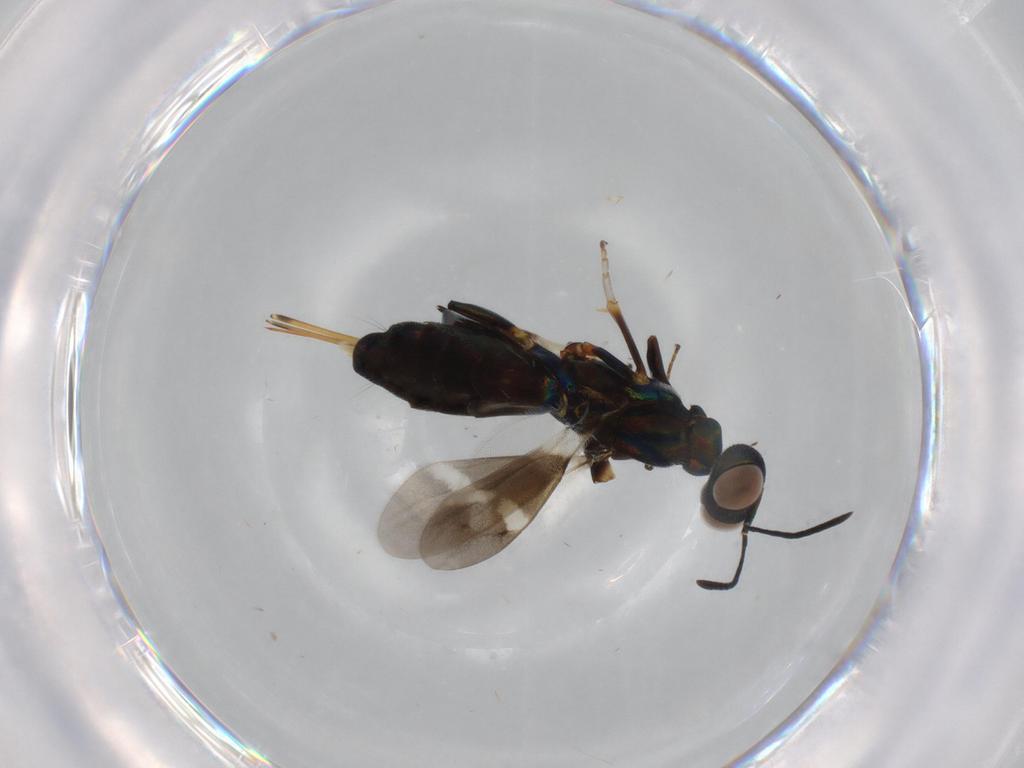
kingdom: Animalia
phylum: Arthropoda
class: Insecta
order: Hymenoptera
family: Eupelmidae
